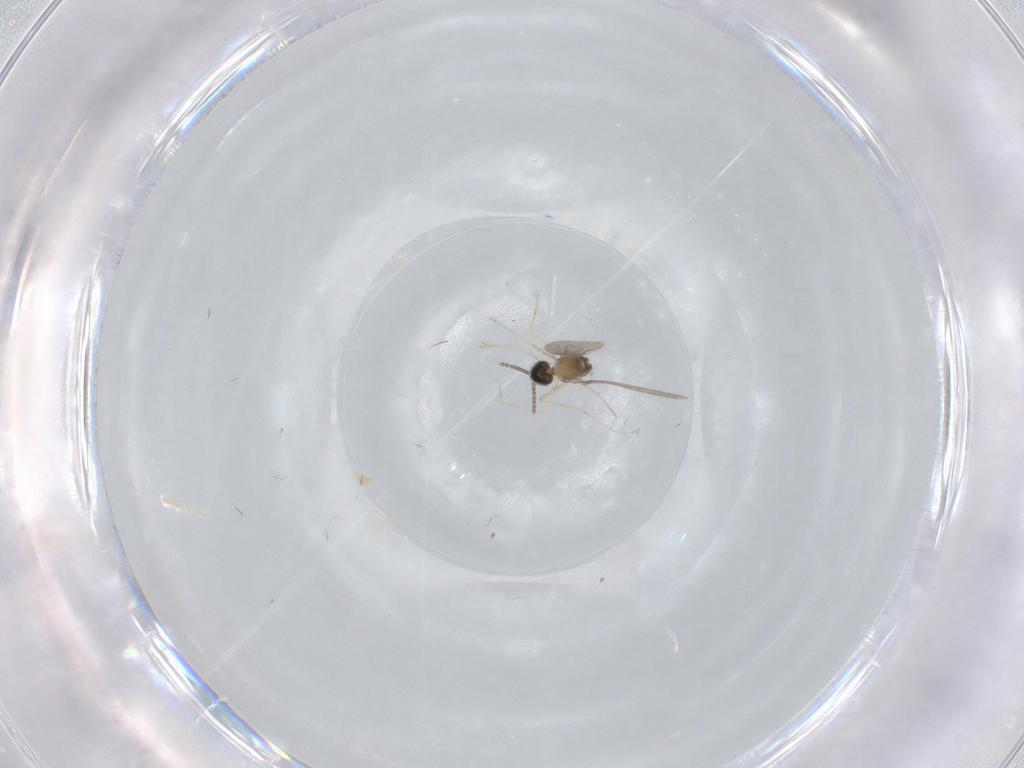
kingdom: Animalia
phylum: Arthropoda
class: Insecta
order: Diptera
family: Cecidomyiidae
